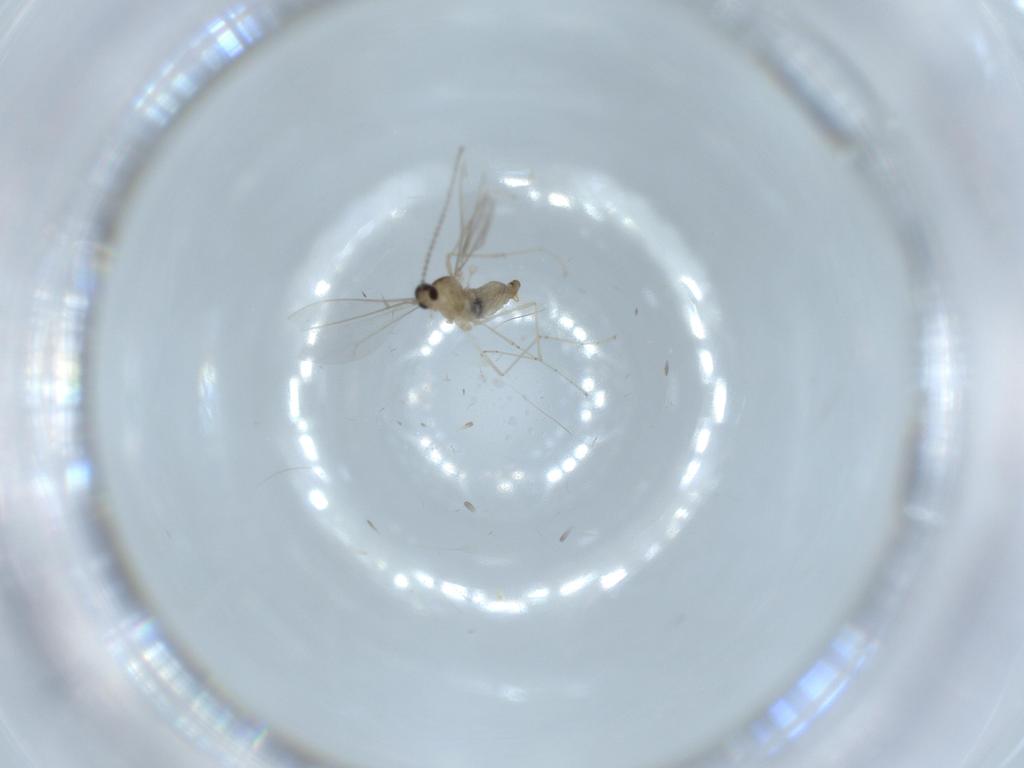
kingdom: Animalia
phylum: Arthropoda
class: Insecta
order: Diptera
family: Cecidomyiidae
